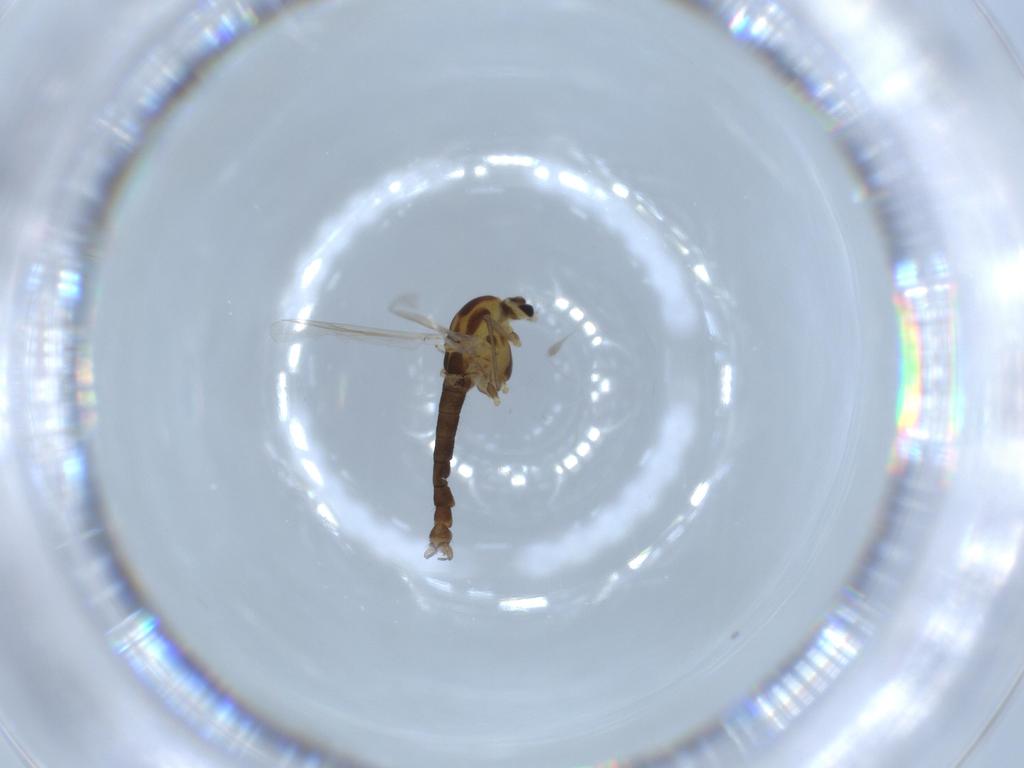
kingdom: Animalia
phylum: Arthropoda
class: Insecta
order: Diptera
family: Chironomidae
